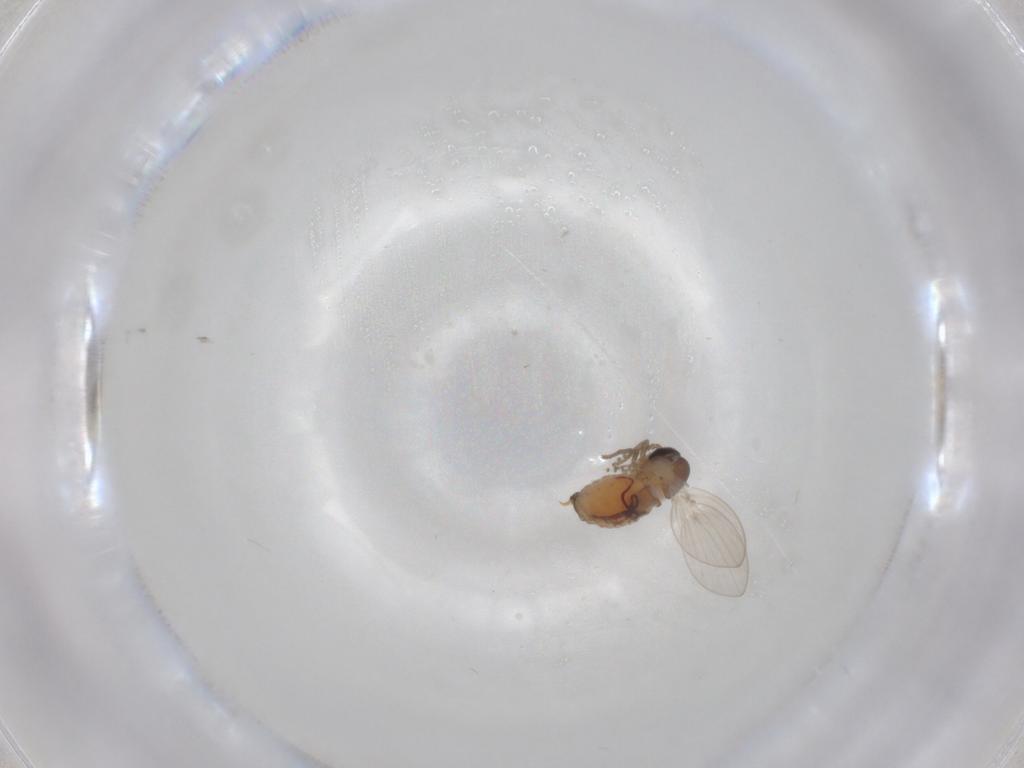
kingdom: Animalia
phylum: Arthropoda
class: Insecta
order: Diptera
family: Psychodidae
